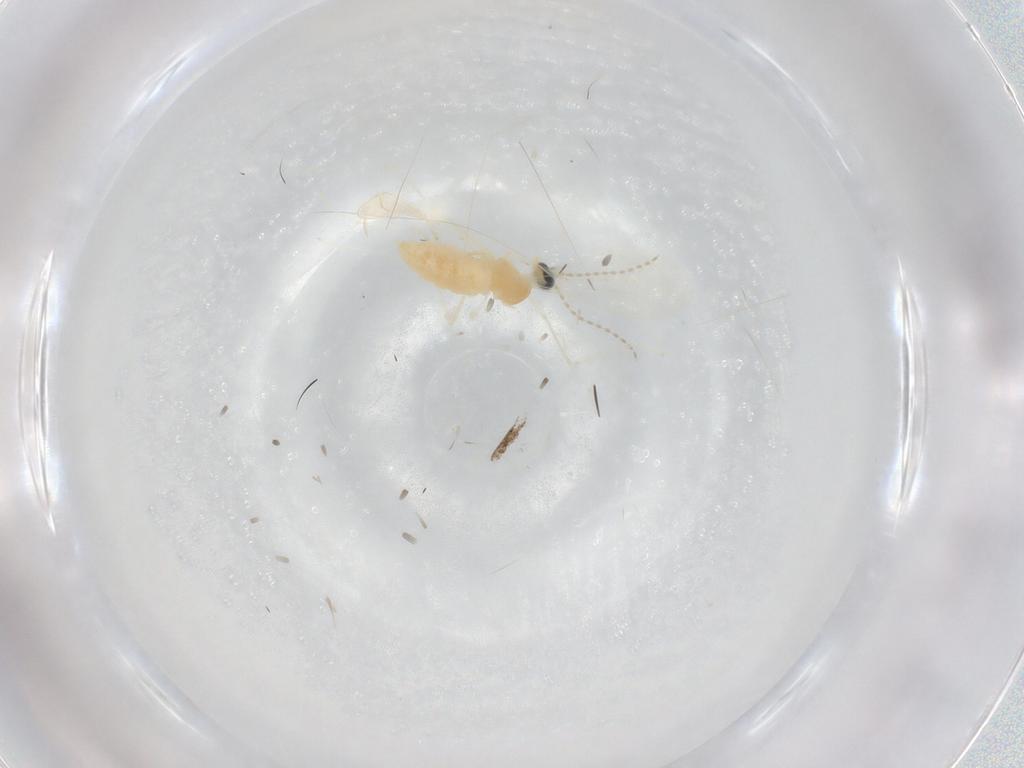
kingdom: Animalia
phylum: Arthropoda
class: Insecta
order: Diptera
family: Cecidomyiidae
